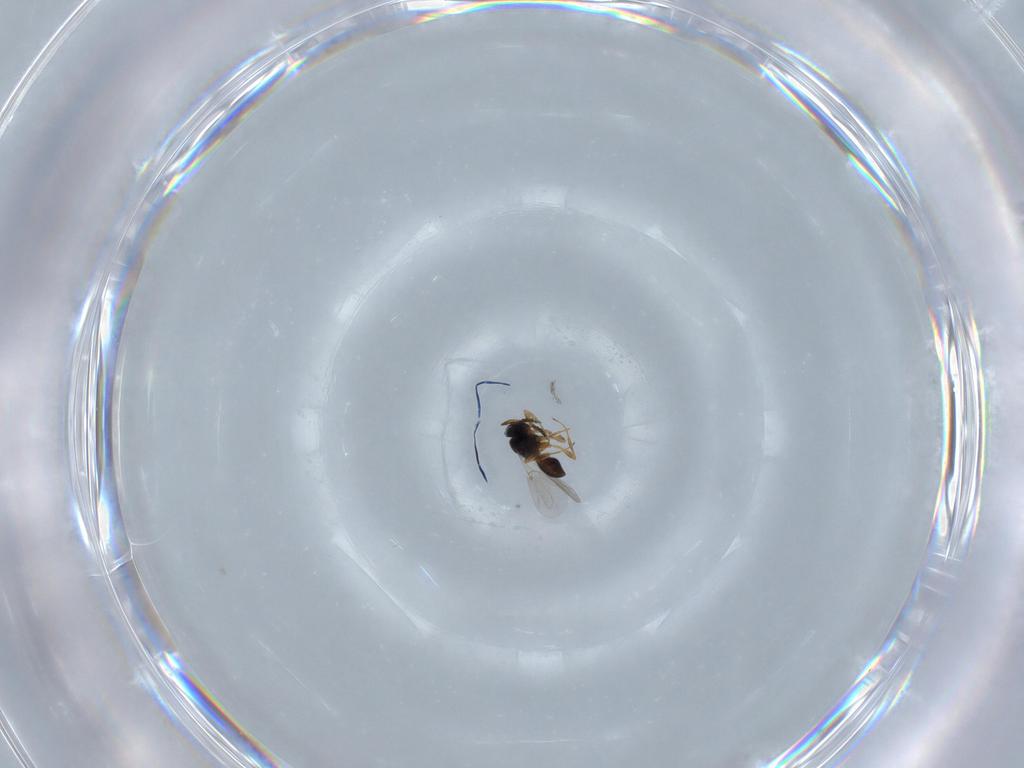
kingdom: Animalia
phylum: Arthropoda
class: Insecta
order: Hymenoptera
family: Platygastridae
